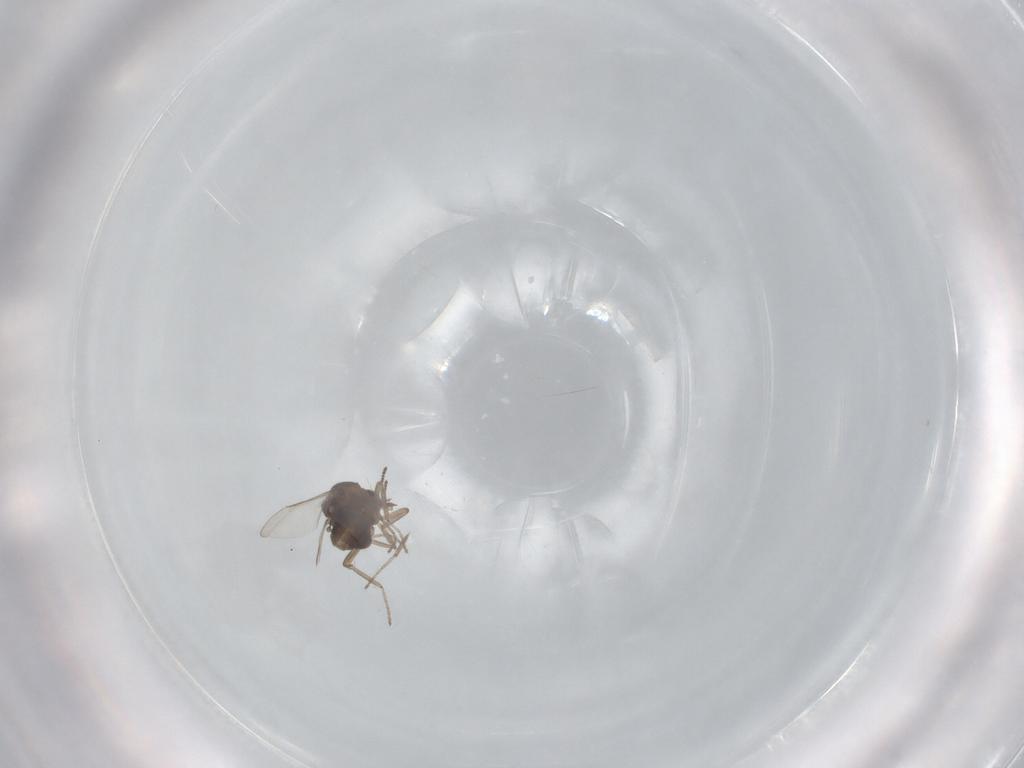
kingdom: Animalia
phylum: Arthropoda
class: Insecta
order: Diptera
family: Ceratopogonidae
